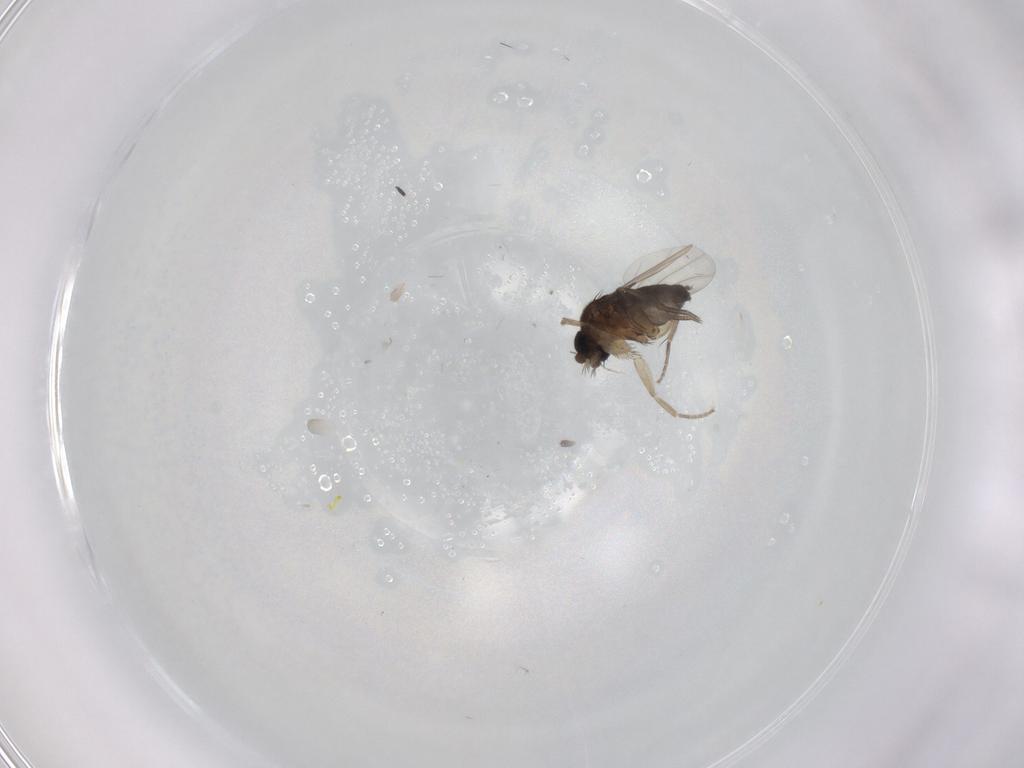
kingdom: Animalia
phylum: Arthropoda
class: Insecta
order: Diptera
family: Phoridae
